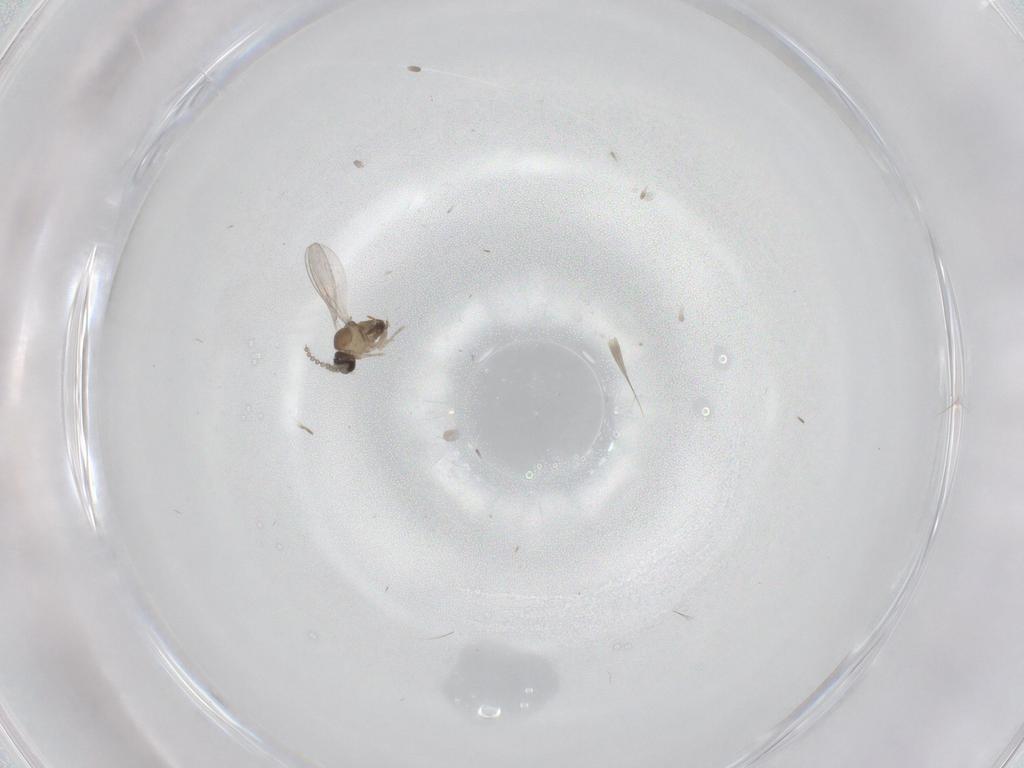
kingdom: Animalia
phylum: Arthropoda
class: Insecta
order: Diptera
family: Cecidomyiidae
